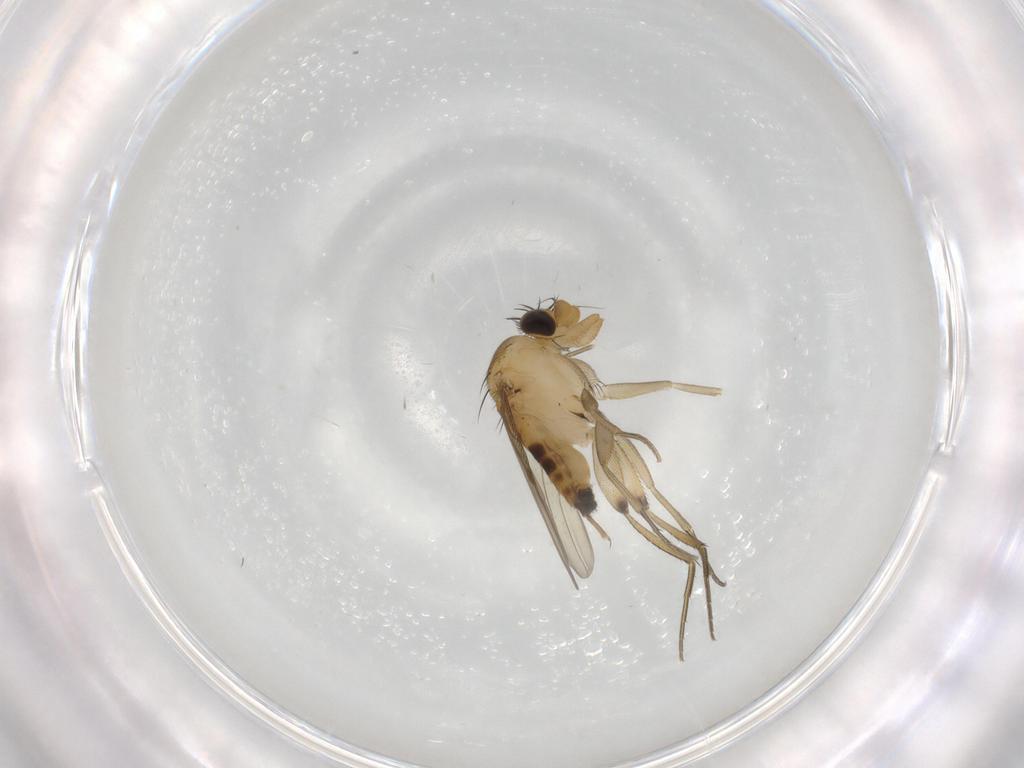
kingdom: Animalia
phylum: Arthropoda
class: Insecta
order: Diptera
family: Phoridae
